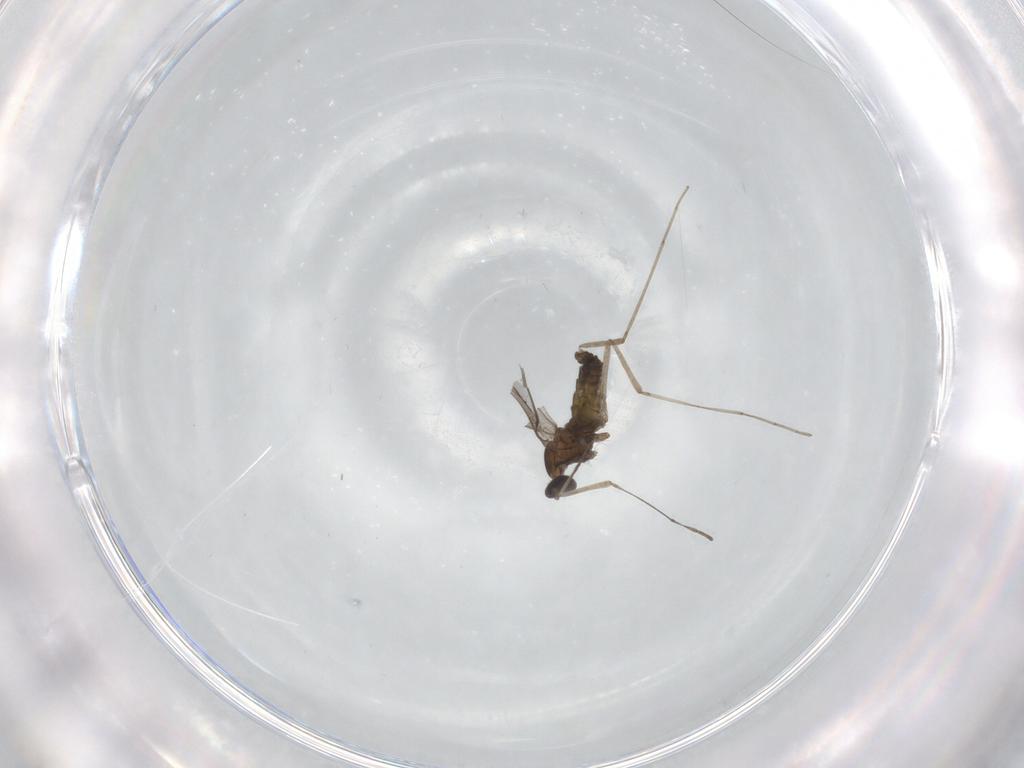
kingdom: Animalia
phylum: Arthropoda
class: Insecta
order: Diptera
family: Cecidomyiidae
